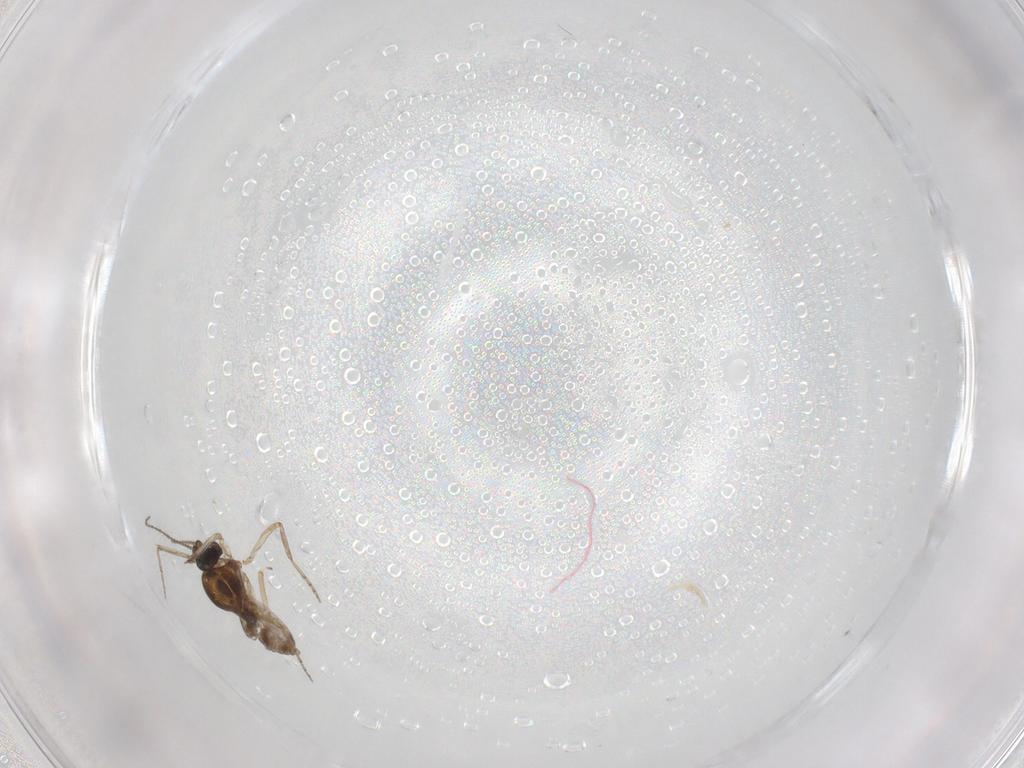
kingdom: Animalia
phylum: Arthropoda
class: Insecta
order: Diptera
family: Ceratopogonidae
